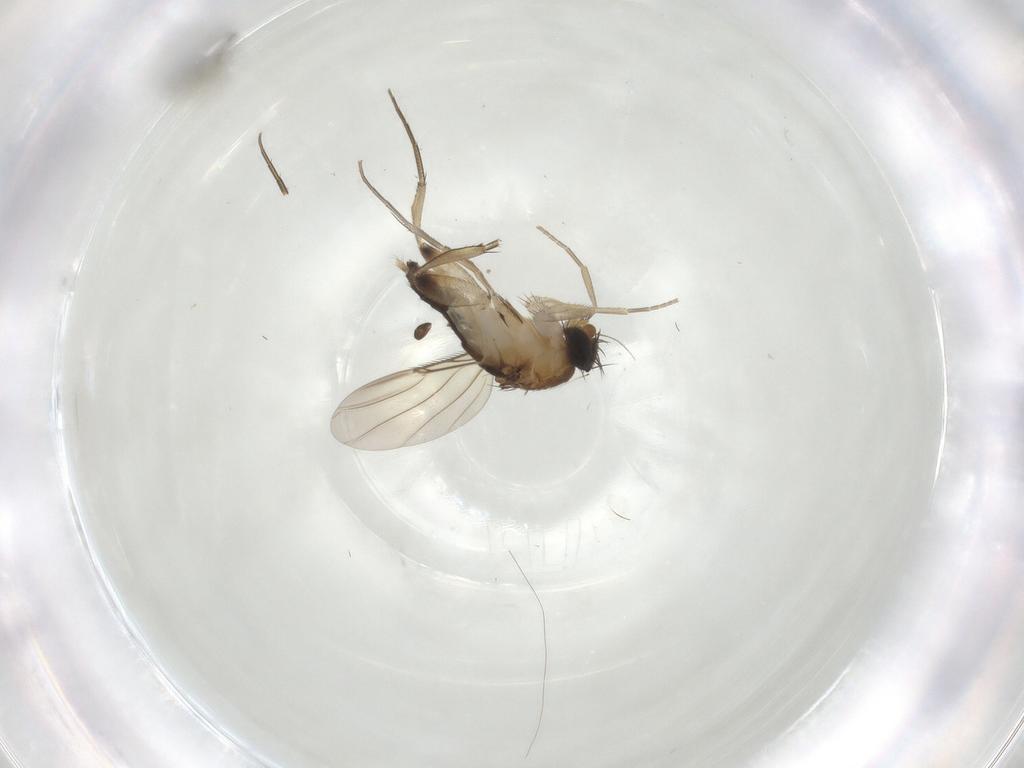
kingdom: Animalia
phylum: Arthropoda
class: Insecta
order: Diptera
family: Phoridae
